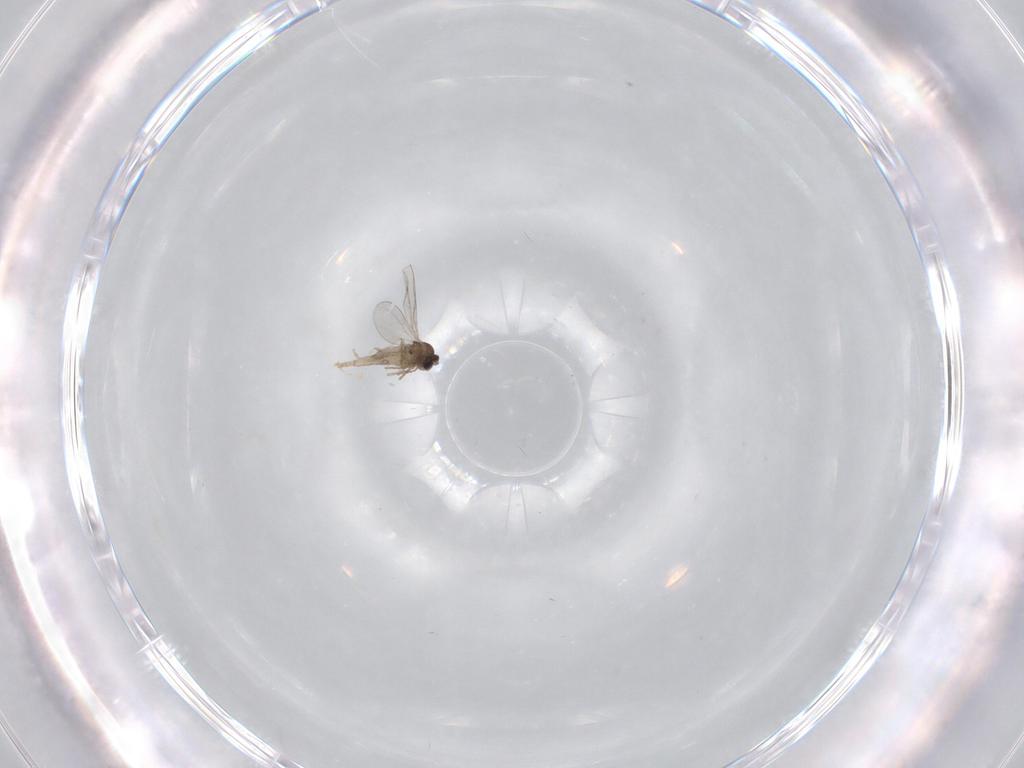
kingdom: Animalia
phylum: Arthropoda
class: Insecta
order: Diptera
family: Cecidomyiidae
